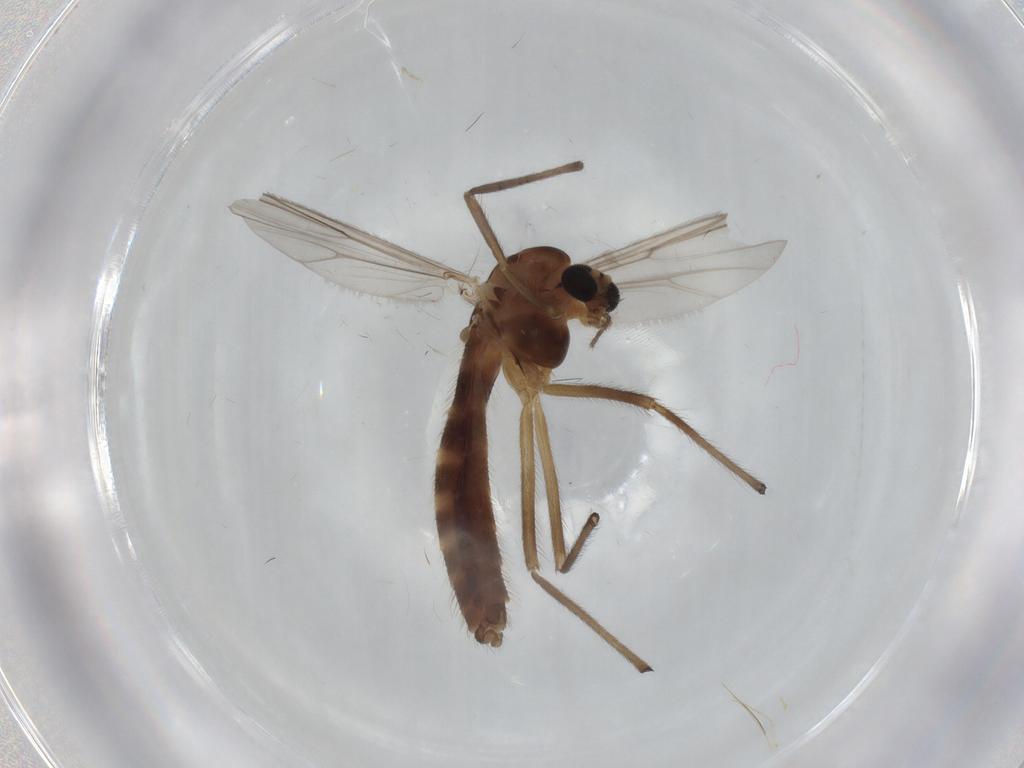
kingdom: Animalia
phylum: Arthropoda
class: Insecta
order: Diptera
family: Chironomidae
